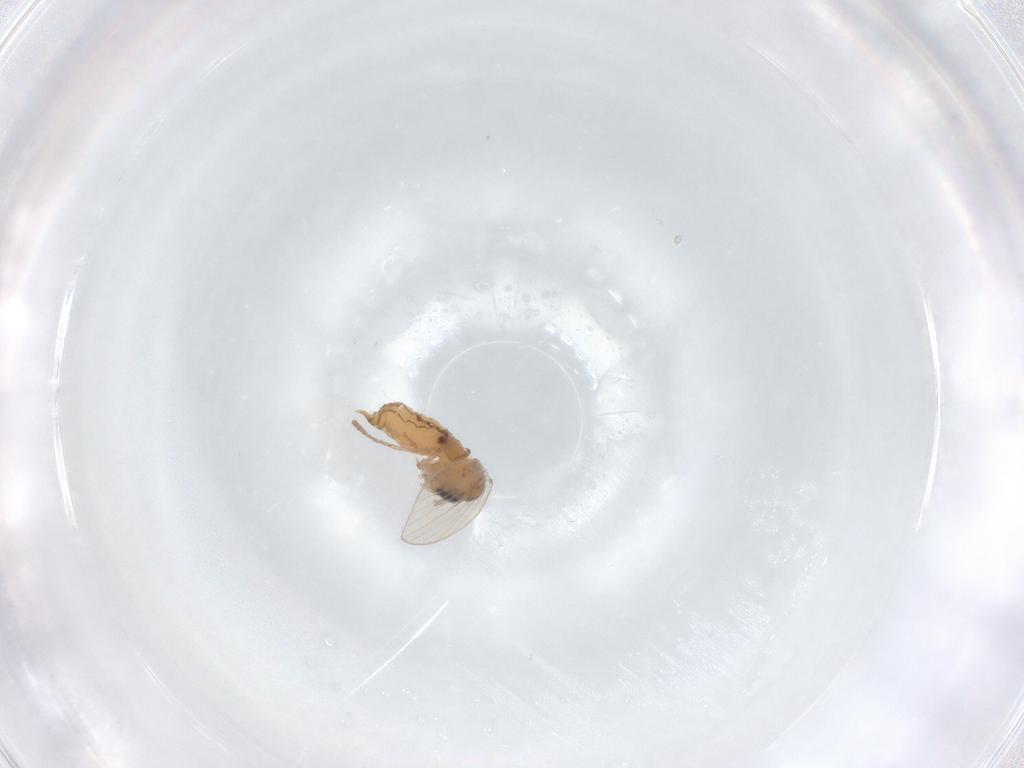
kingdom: Animalia
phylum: Arthropoda
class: Insecta
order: Diptera
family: Psychodidae
